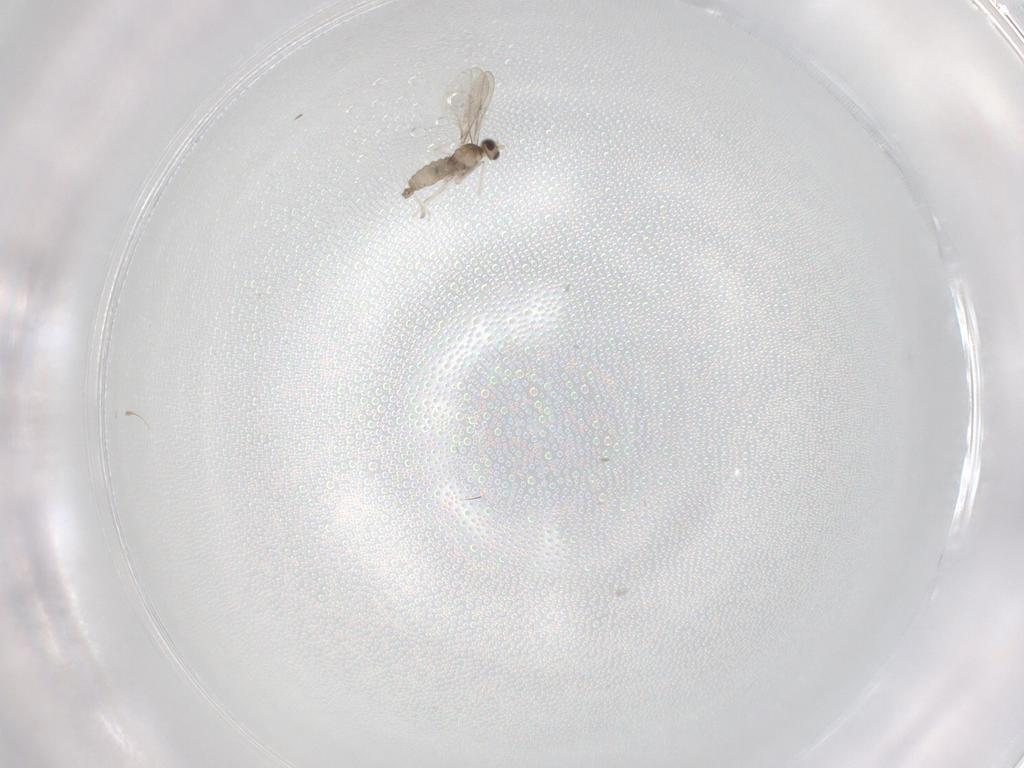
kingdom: Animalia
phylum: Arthropoda
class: Insecta
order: Diptera
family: Cecidomyiidae
